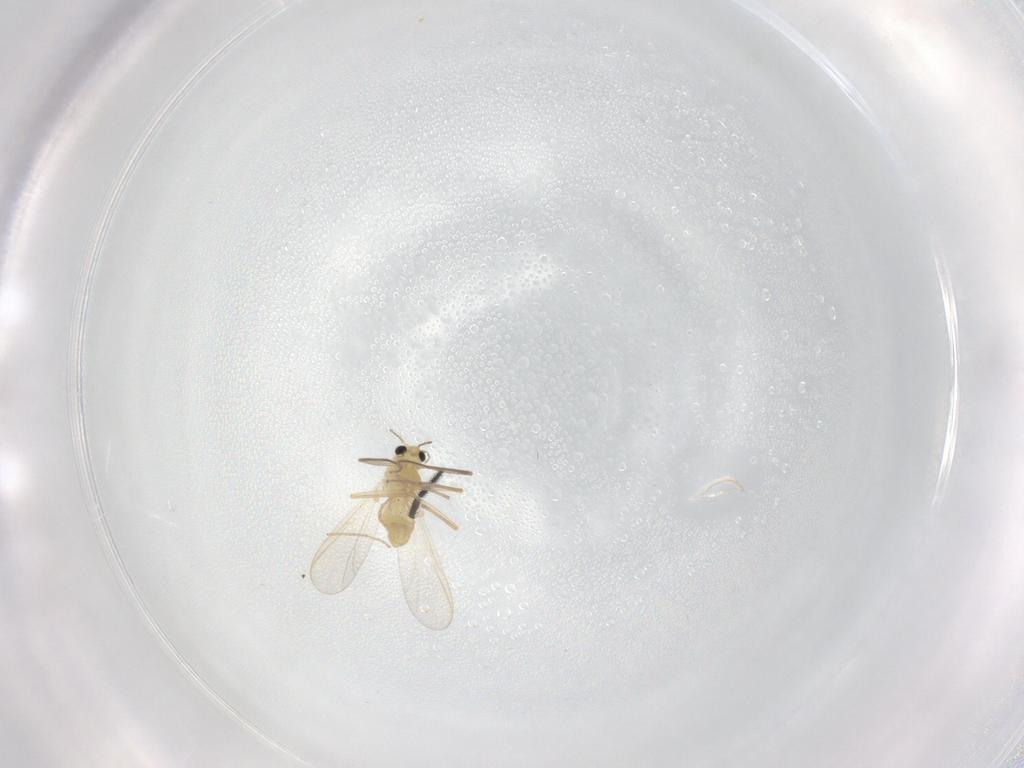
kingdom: Animalia
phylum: Arthropoda
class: Insecta
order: Diptera
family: Chironomidae
